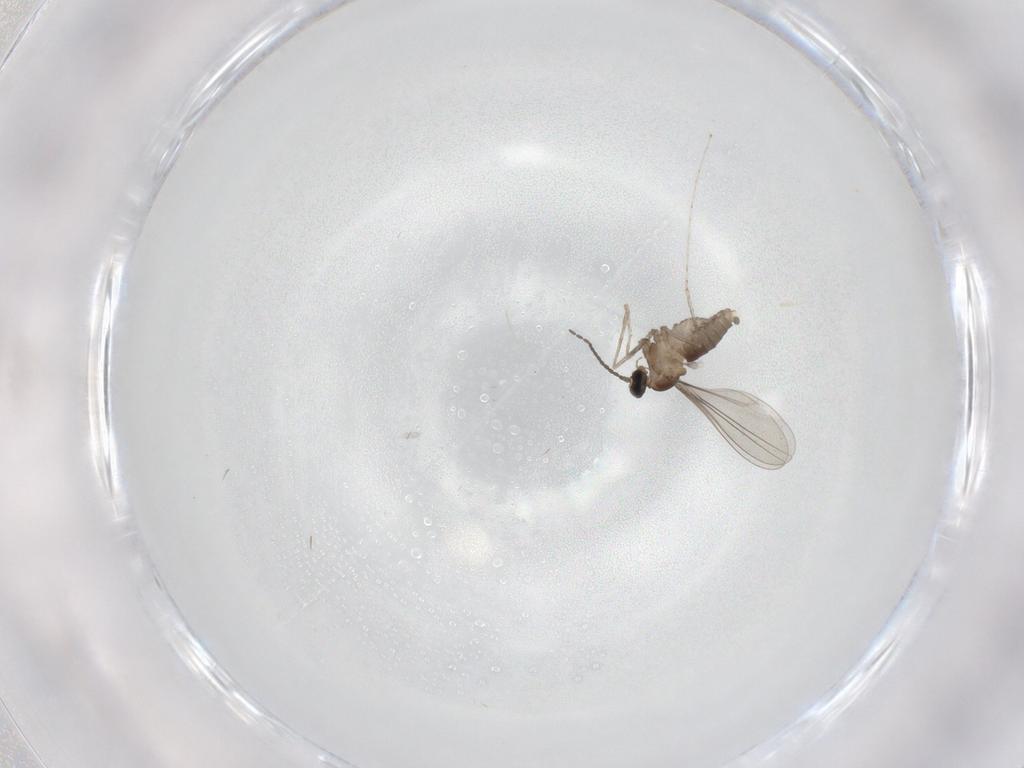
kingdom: Animalia
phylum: Arthropoda
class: Insecta
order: Diptera
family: Cecidomyiidae
